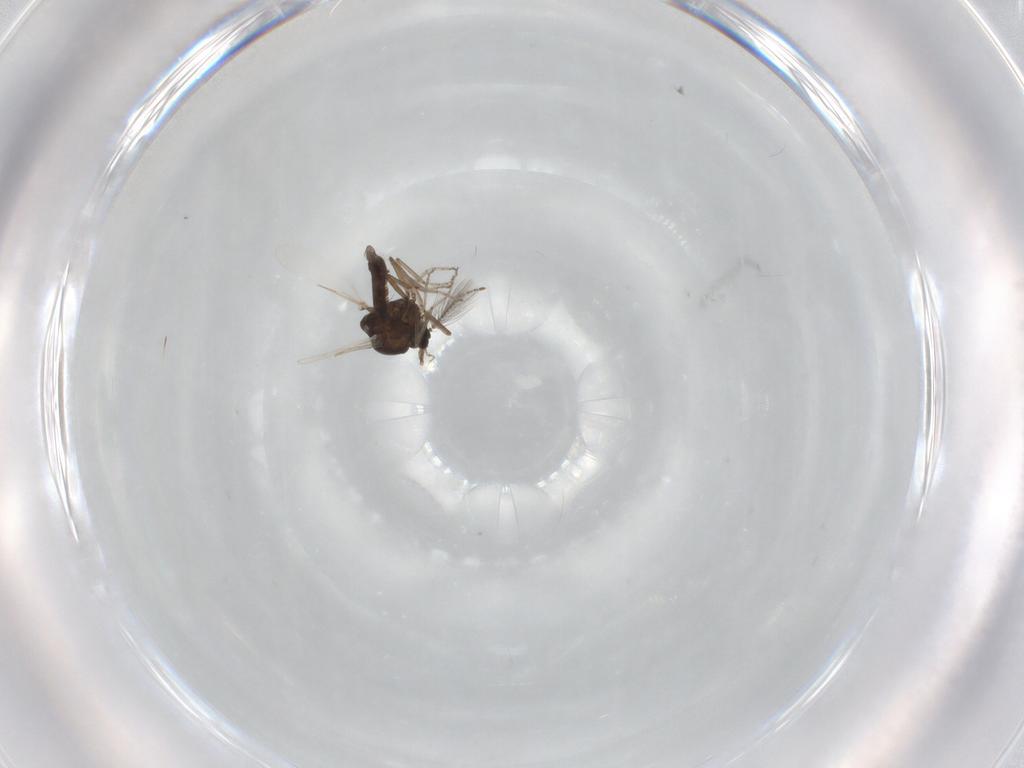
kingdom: Animalia
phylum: Arthropoda
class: Insecta
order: Diptera
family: Ceratopogonidae
